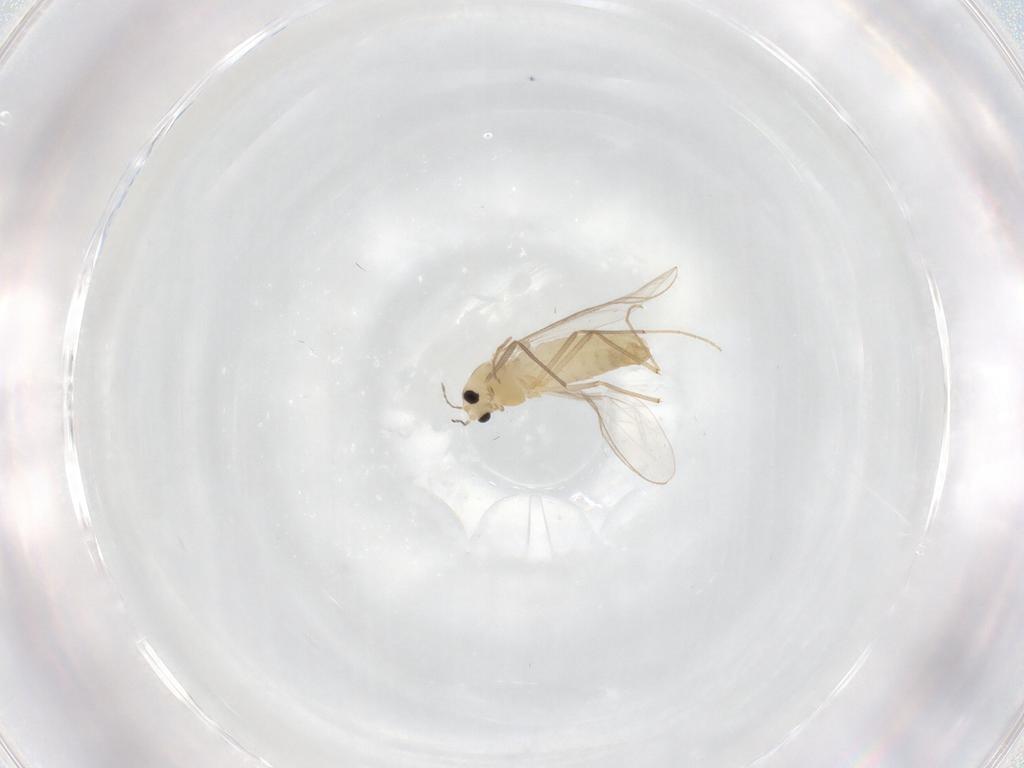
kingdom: Animalia
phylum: Arthropoda
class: Insecta
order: Diptera
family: Chironomidae
